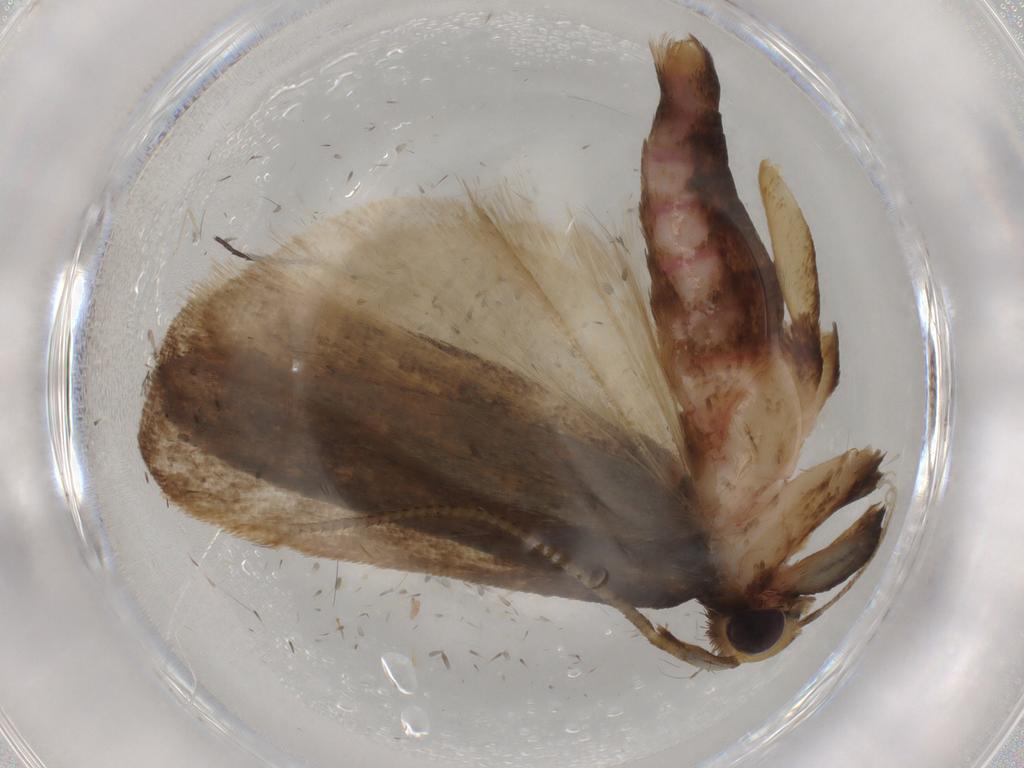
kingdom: Animalia
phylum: Arthropoda
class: Insecta
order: Lepidoptera
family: Autostichidae
